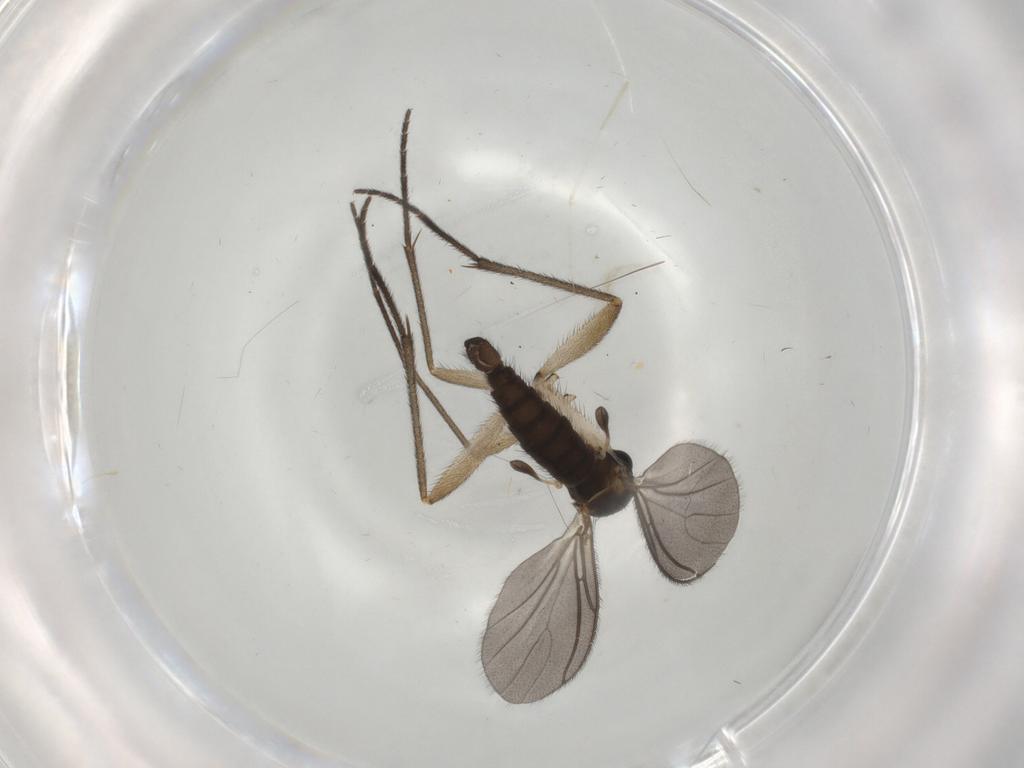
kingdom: Animalia
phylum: Arthropoda
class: Insecta
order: Diptera
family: Sciaridae
